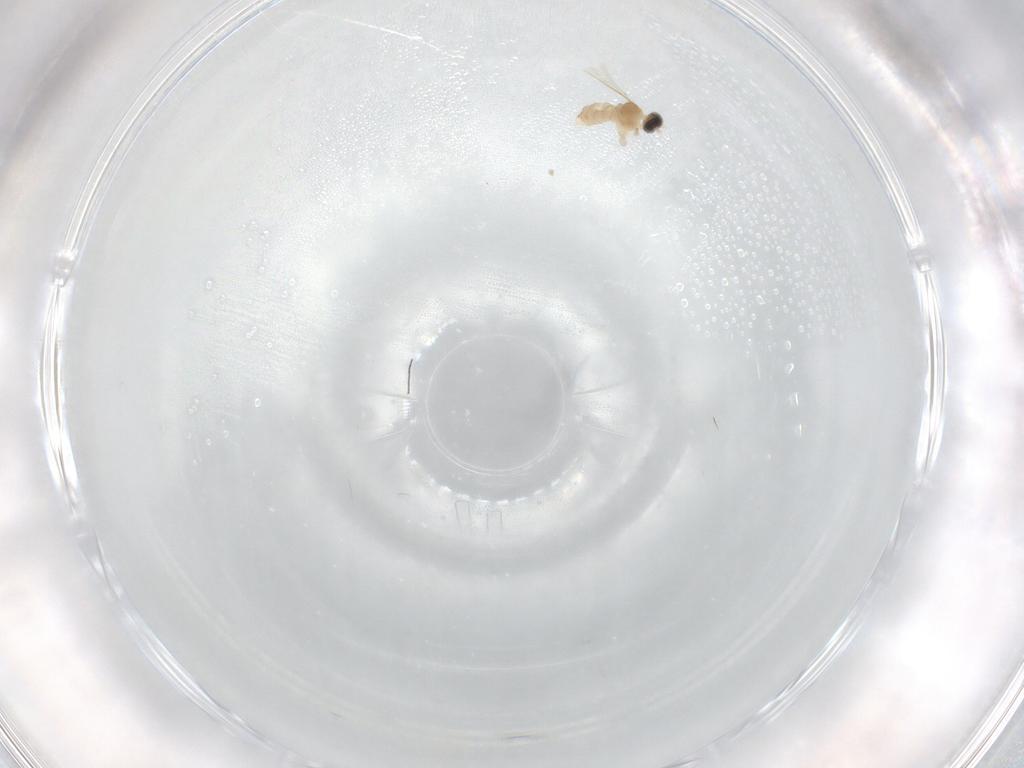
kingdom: Animalia
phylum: Arthropoda
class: Insecta
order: Diptera
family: Cecidomyiidae
